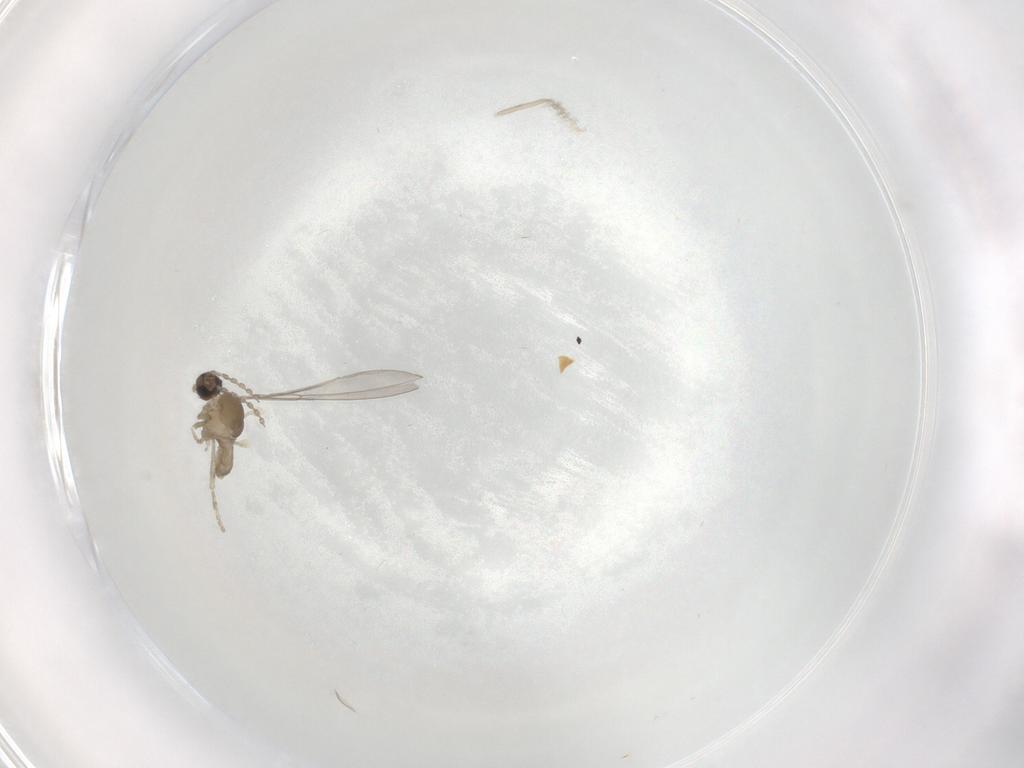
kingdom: Animalia
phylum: Arthropoda
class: Insecta
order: Diptera
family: Cecidomyiidae
